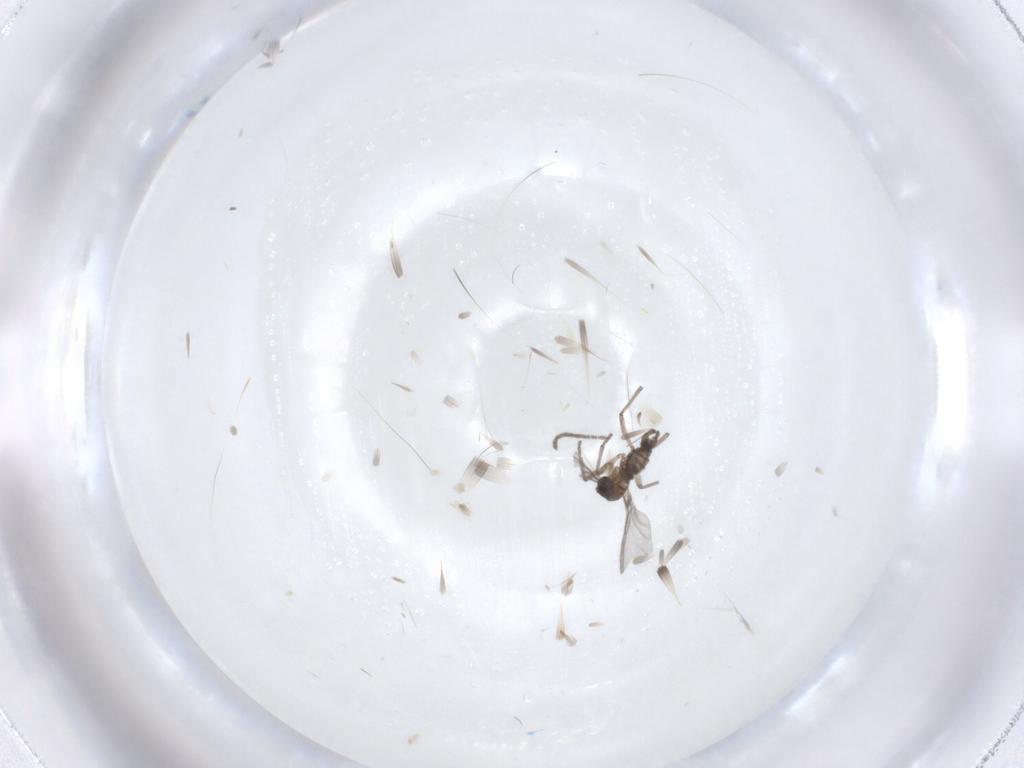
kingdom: Animalia
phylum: Arthropoda
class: Insecta
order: Diptera
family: Sciaridae
